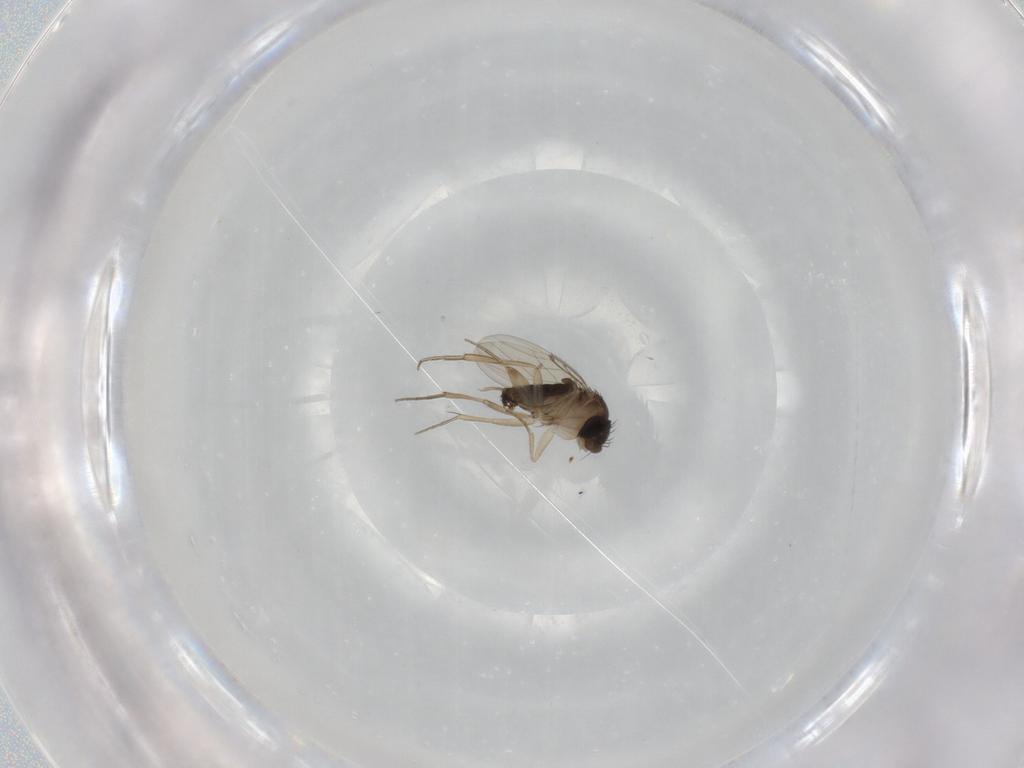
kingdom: Animalia
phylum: Arthropoda
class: Insecta
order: Diptera
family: Phoridae
